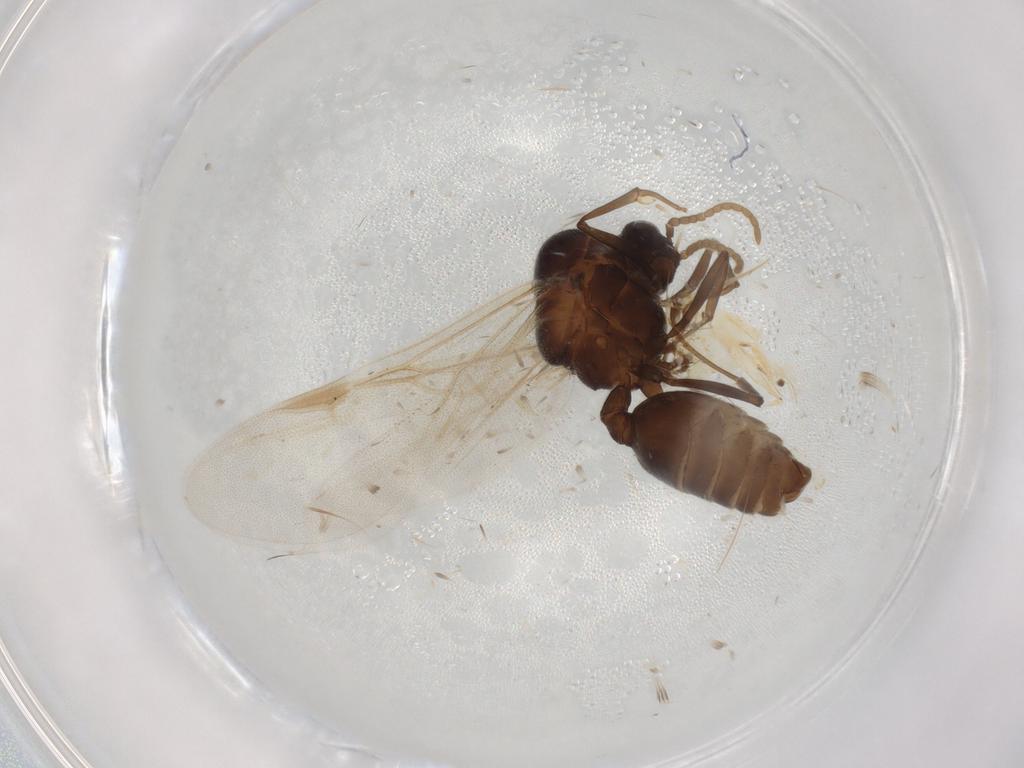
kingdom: Animalia
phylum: Arthropoda
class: Insecta
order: Hymenoptera
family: Formicidae
